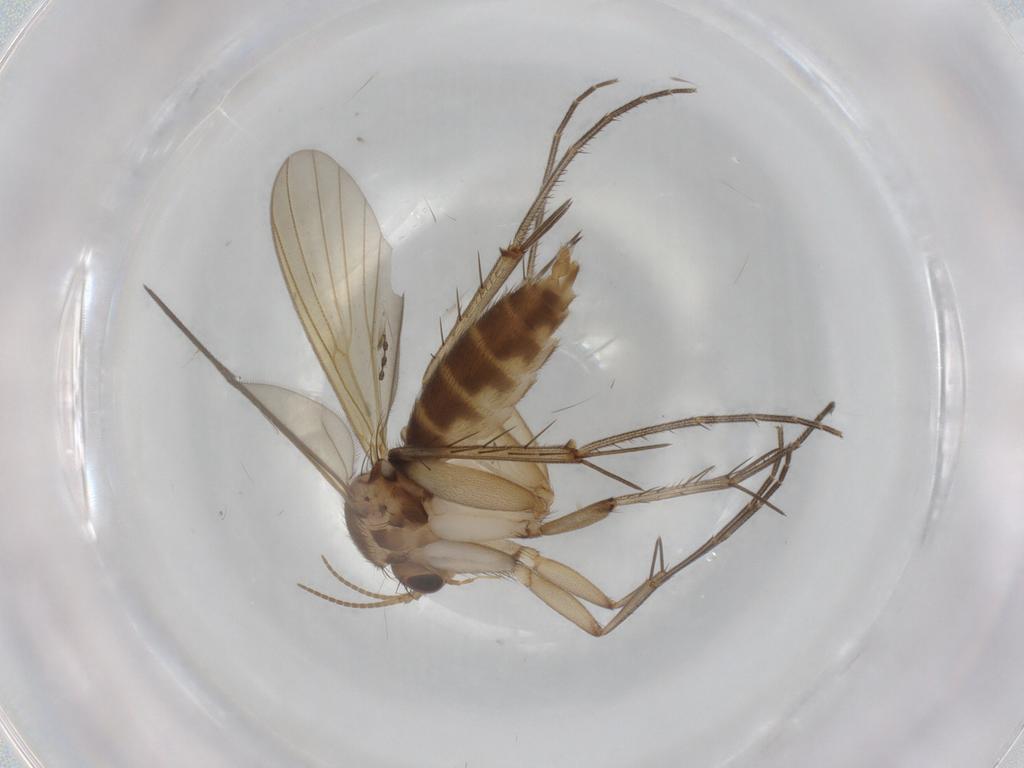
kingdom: Animalia
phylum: Arthropoda
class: Insecta
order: Diptera
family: Mycetophilidae
